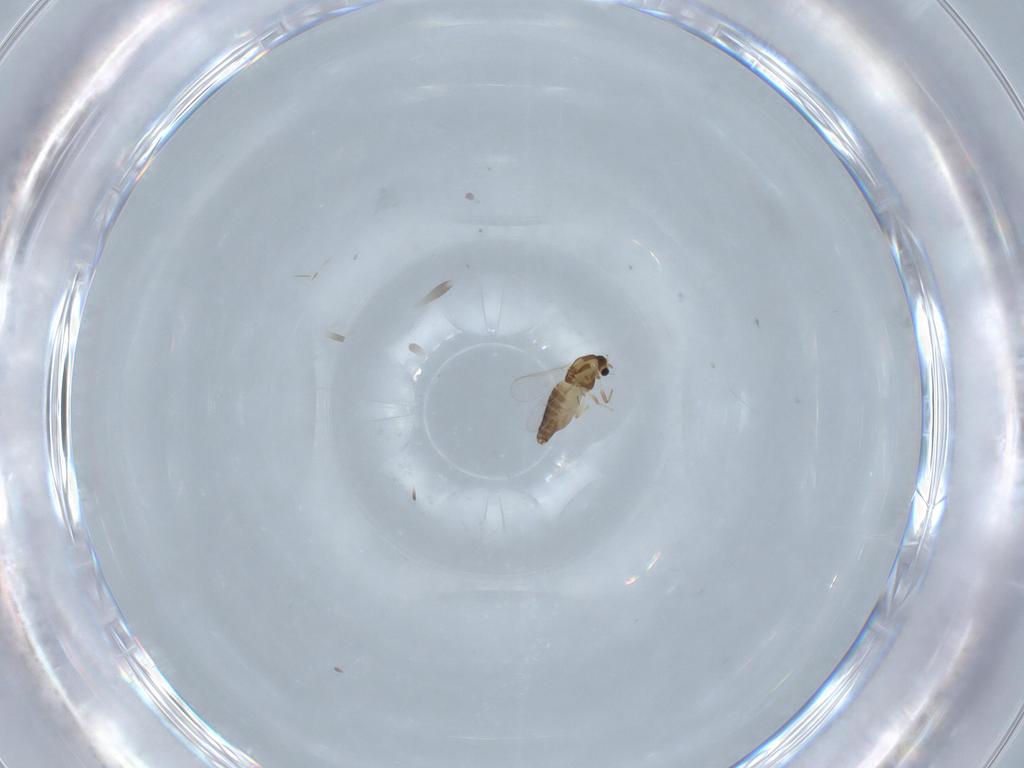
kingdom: Animalia
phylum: Arthropoda
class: Insecta
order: Diptera
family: Chironomidae
